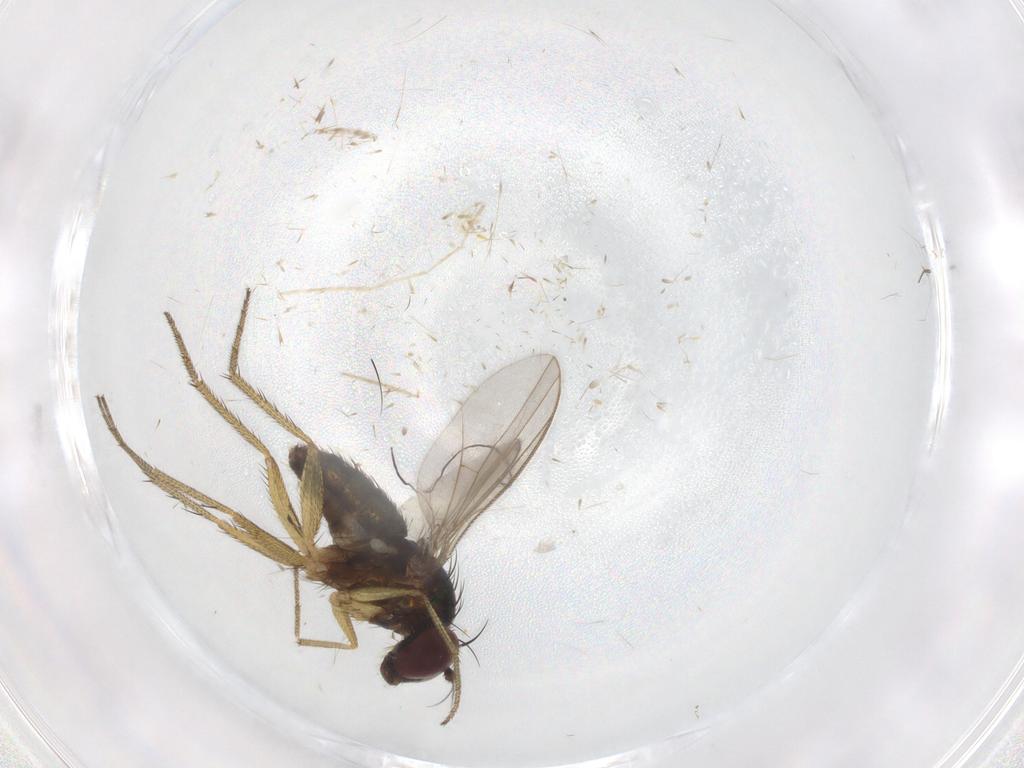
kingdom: Animalia
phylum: Arthropoda
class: Insecta
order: Diptera
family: Chironomidae
